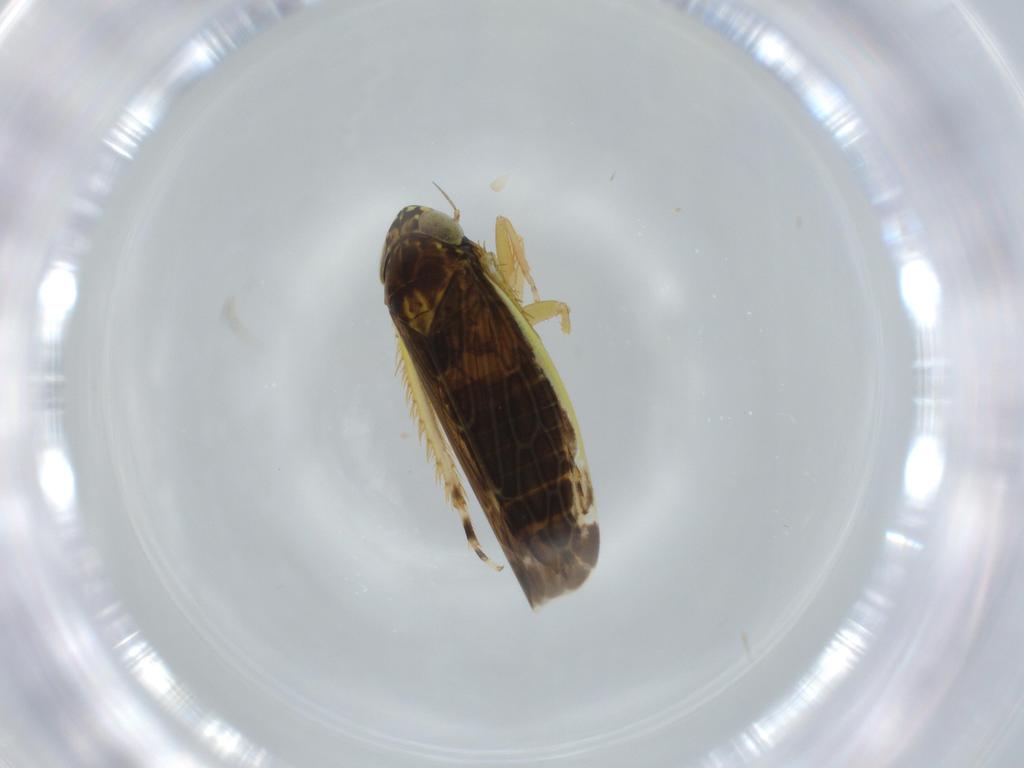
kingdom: Animalia
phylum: Arthropoda
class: Insecta
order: Hemiptera
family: Cicadellidae
